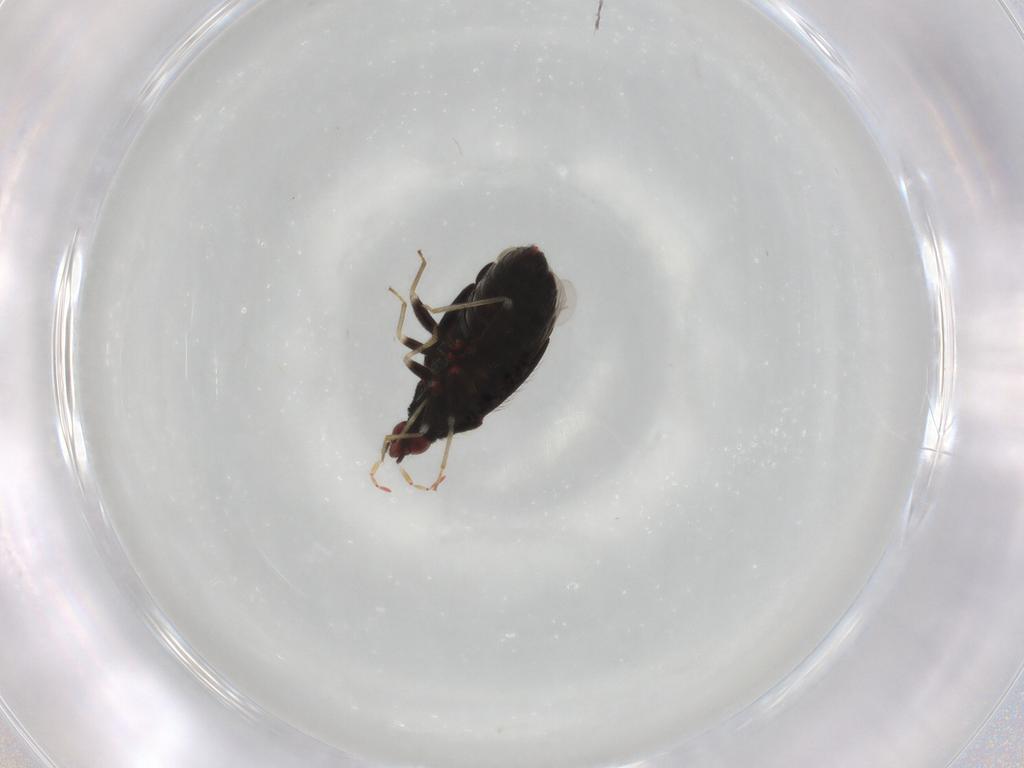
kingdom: Animalia
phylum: Arthropoda
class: Insecta
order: Hemiptera
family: Miridae
